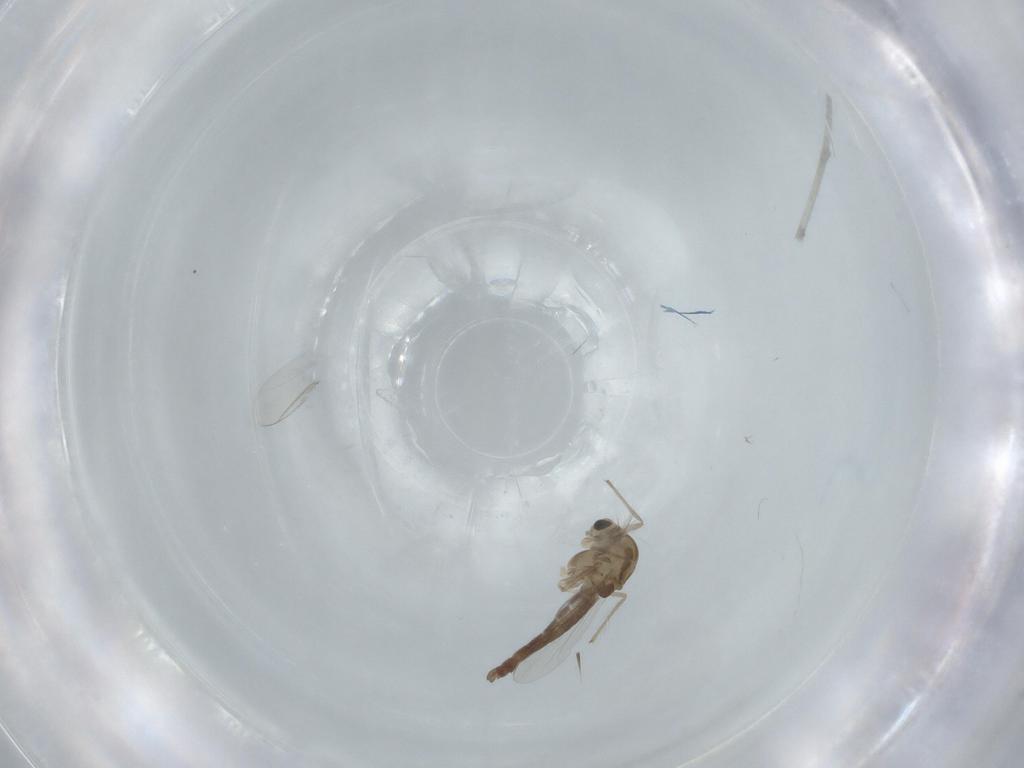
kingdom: Animalia
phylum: Arthropoda
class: Insecta
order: Diptera
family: Chironomidae
